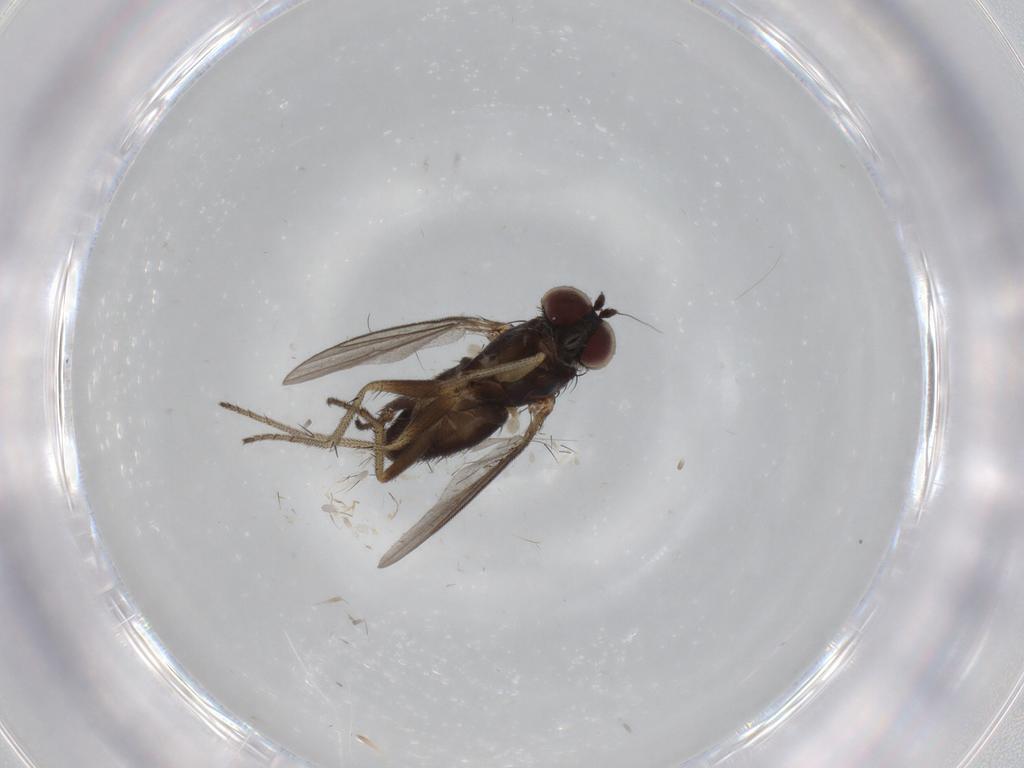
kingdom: Animalia
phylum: Arthropoda
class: Insecta
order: Diptera
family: Cecidomyiidae
